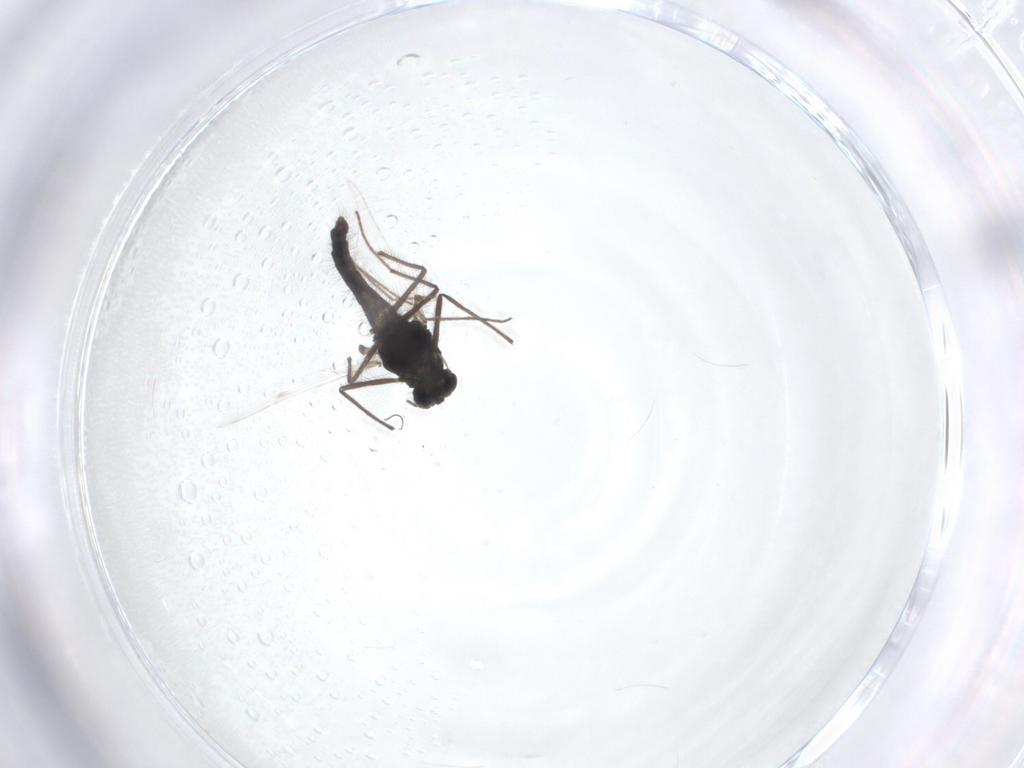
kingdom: Animalia
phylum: Arthropoda
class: Insecta
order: Diptera
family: Chironomidae
